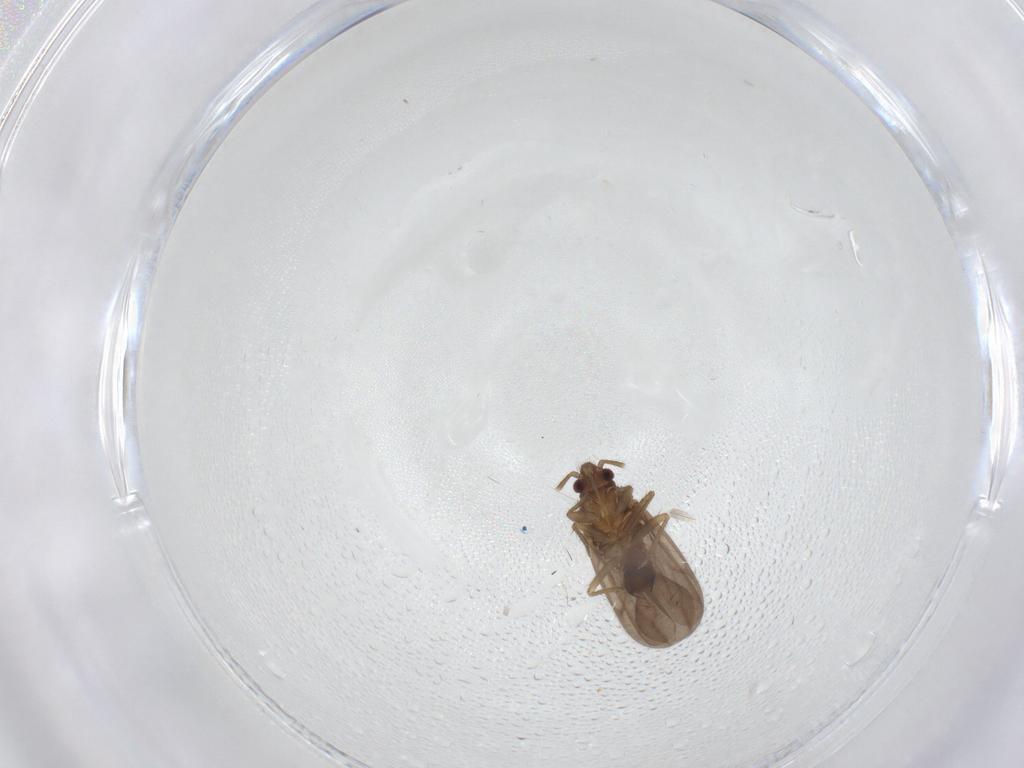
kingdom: Animalia
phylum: Arthropoda
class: Insecta
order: Hemiptera
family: Ceratocombidae
